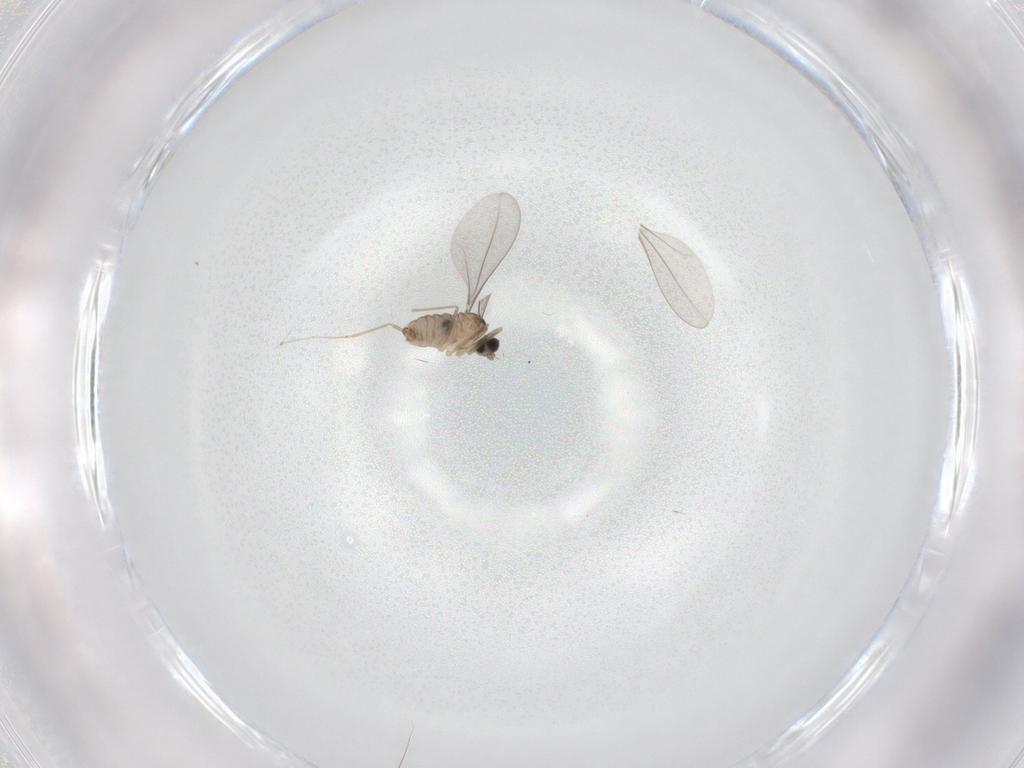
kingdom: Animalia
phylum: Arthropoda
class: Insecta
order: Diptera
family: Cecidomyiidae
